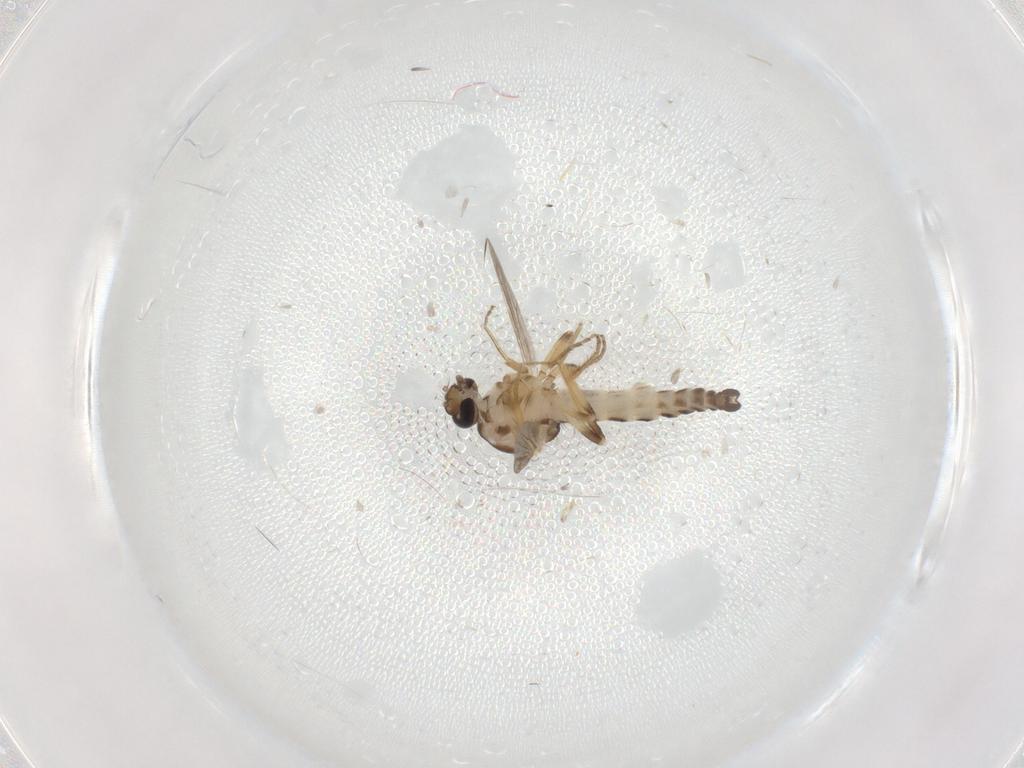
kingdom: Animalia
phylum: Arthropoda
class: Insecta
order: Diptera
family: Ceratopogonidae
